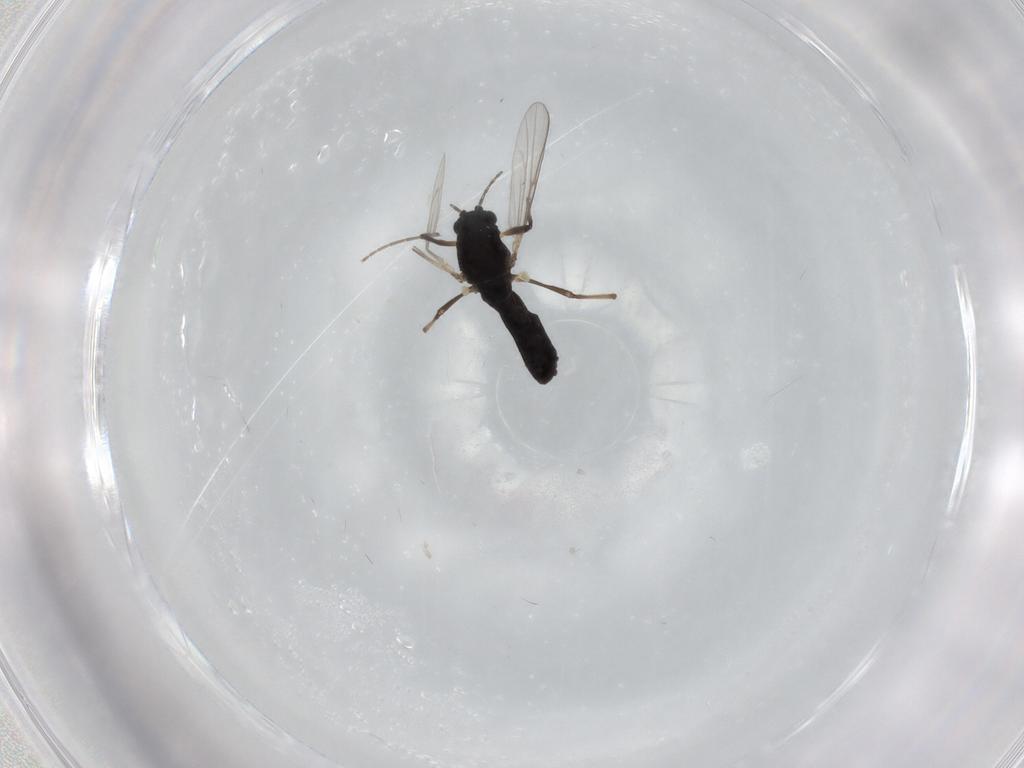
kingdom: Animalia
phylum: Arthropoda
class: Insecta
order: Diptera
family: Chironomidae
